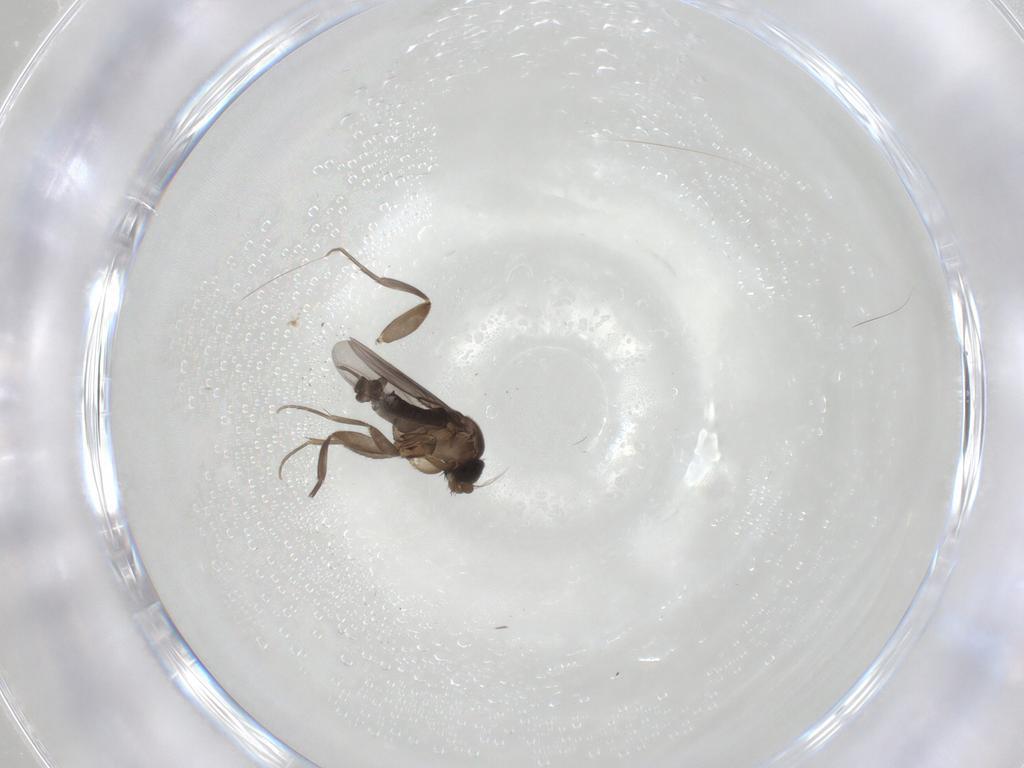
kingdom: Animalia
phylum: Arthropoda
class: Insecta
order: Diptera
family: Phoridae
